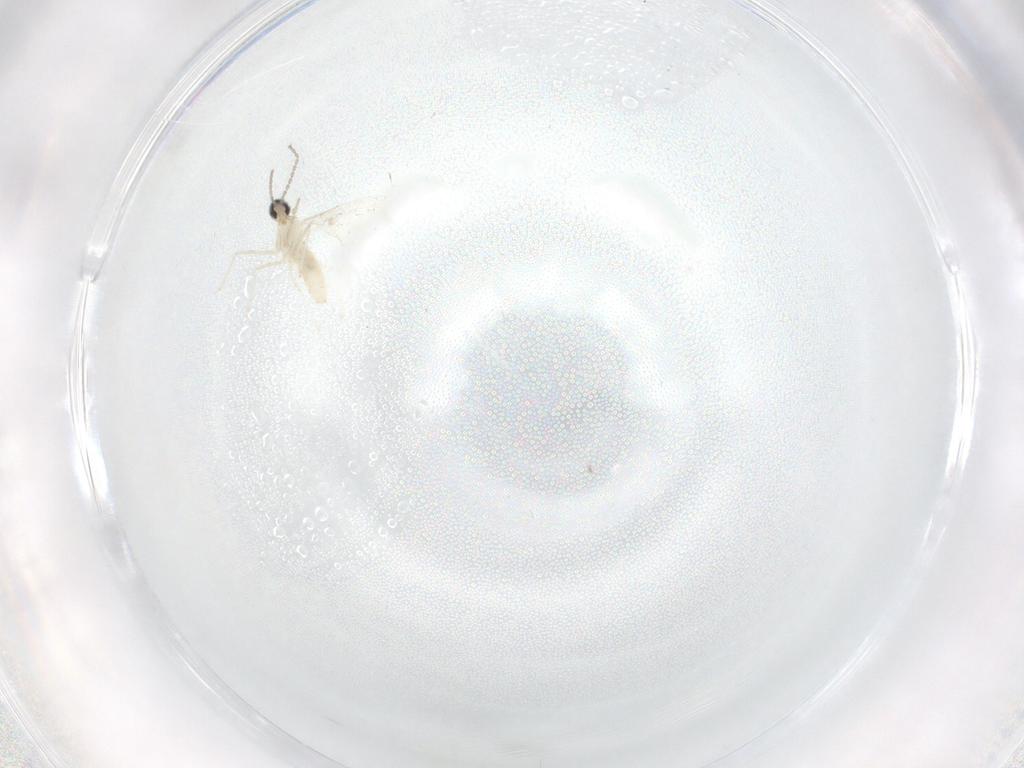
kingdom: Animalia
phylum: Arthropoda
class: Insecta
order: Diptera
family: Cecidomyiidae
